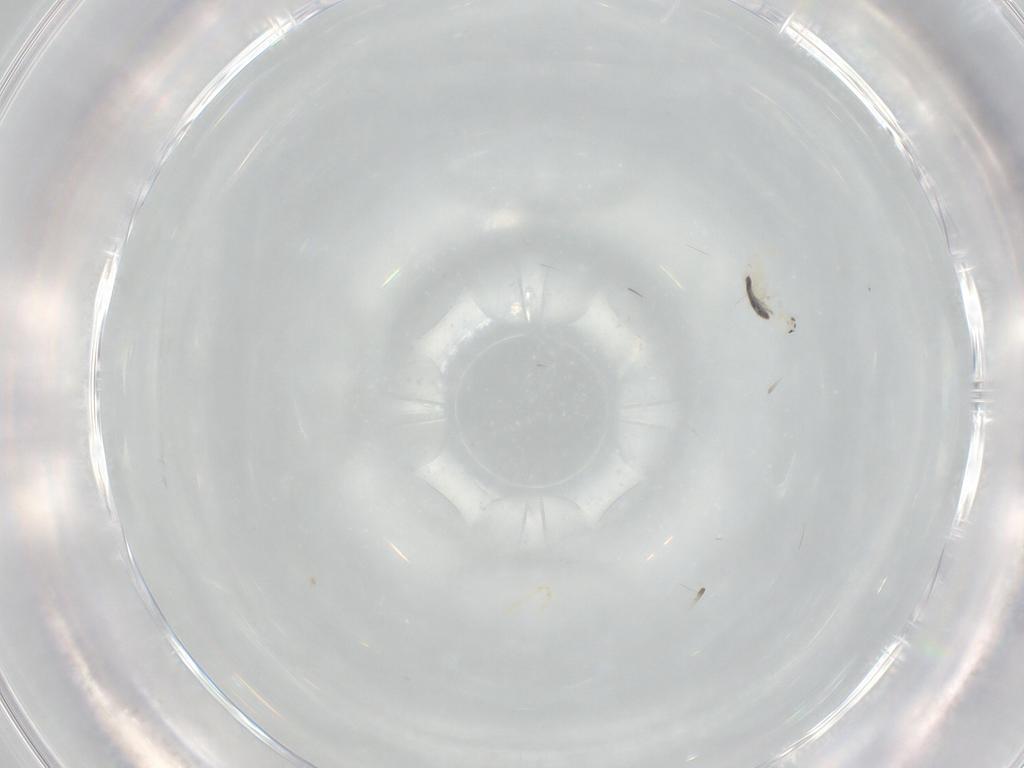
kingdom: Animalia
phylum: Arthropoda
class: Collembola
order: Entomobryomorpha
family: Entomobryidae
